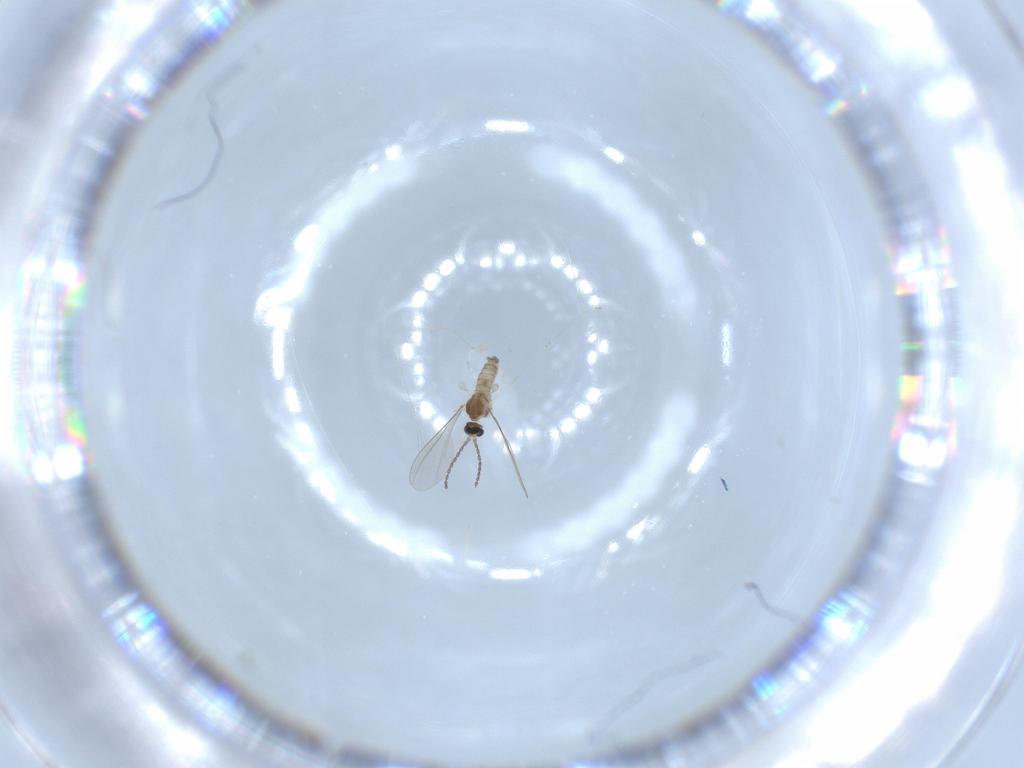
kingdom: Animalia
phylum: Arthropoda
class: Insecta
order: Diptera
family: Cecidomyiidae
